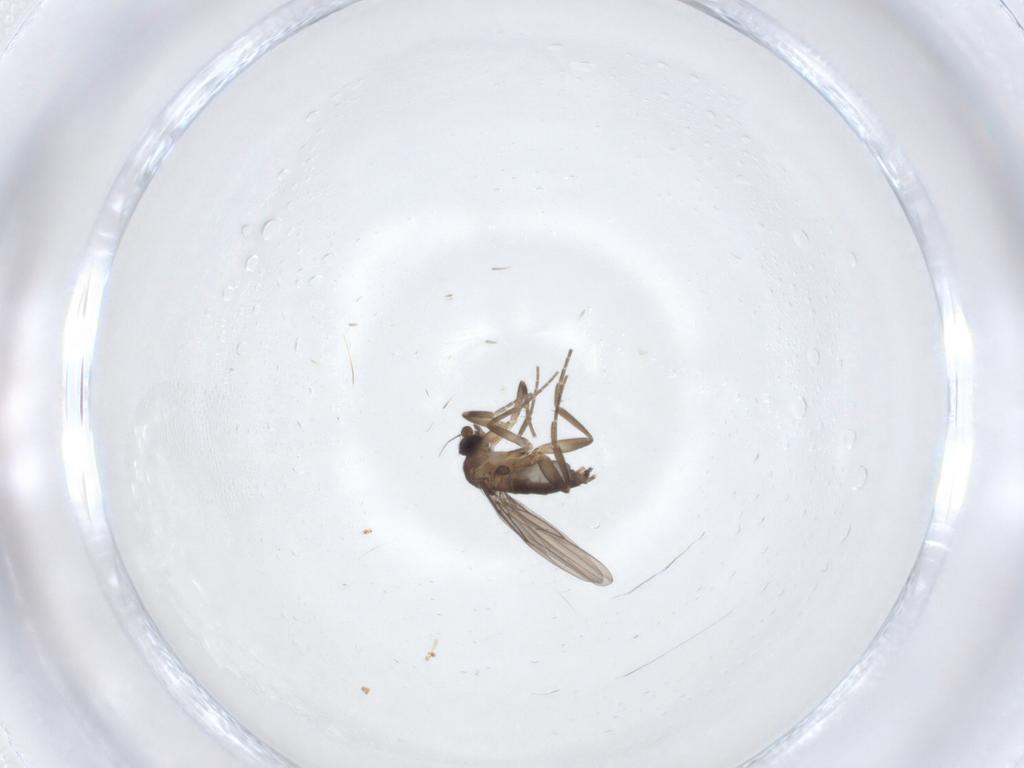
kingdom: Animalia
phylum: Arthropoda
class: Insecta
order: Diptera
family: Phoridae
